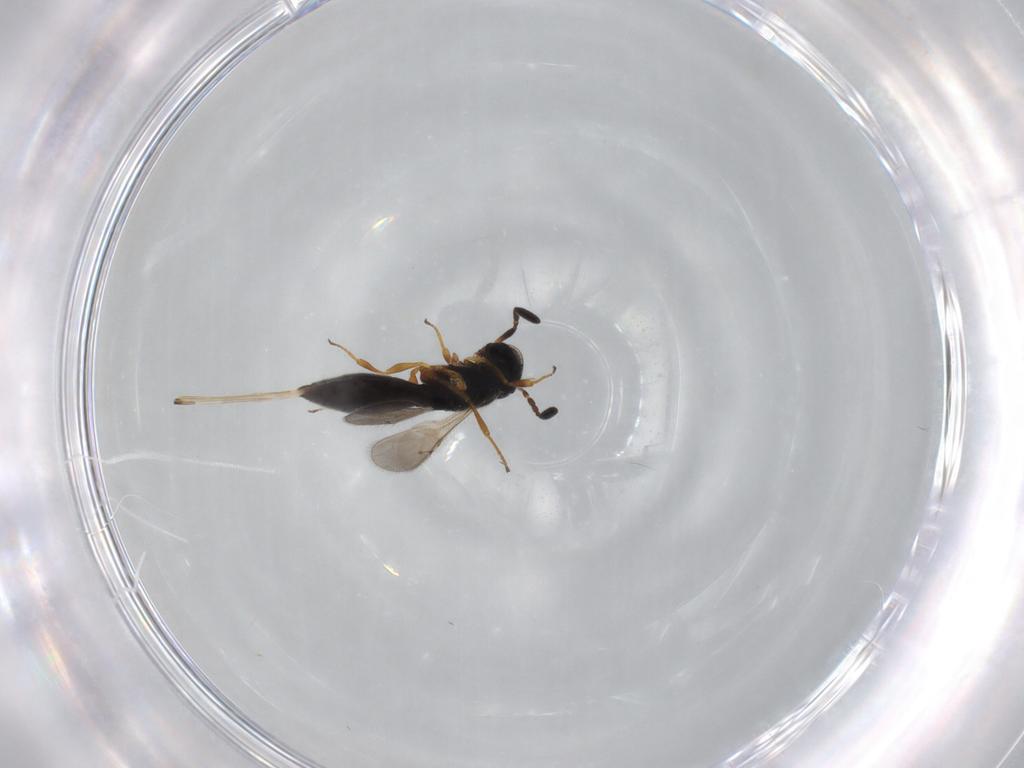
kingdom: Animalia
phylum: Arthropoda
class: Insecta
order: Hymenoptera
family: Scelionidae
